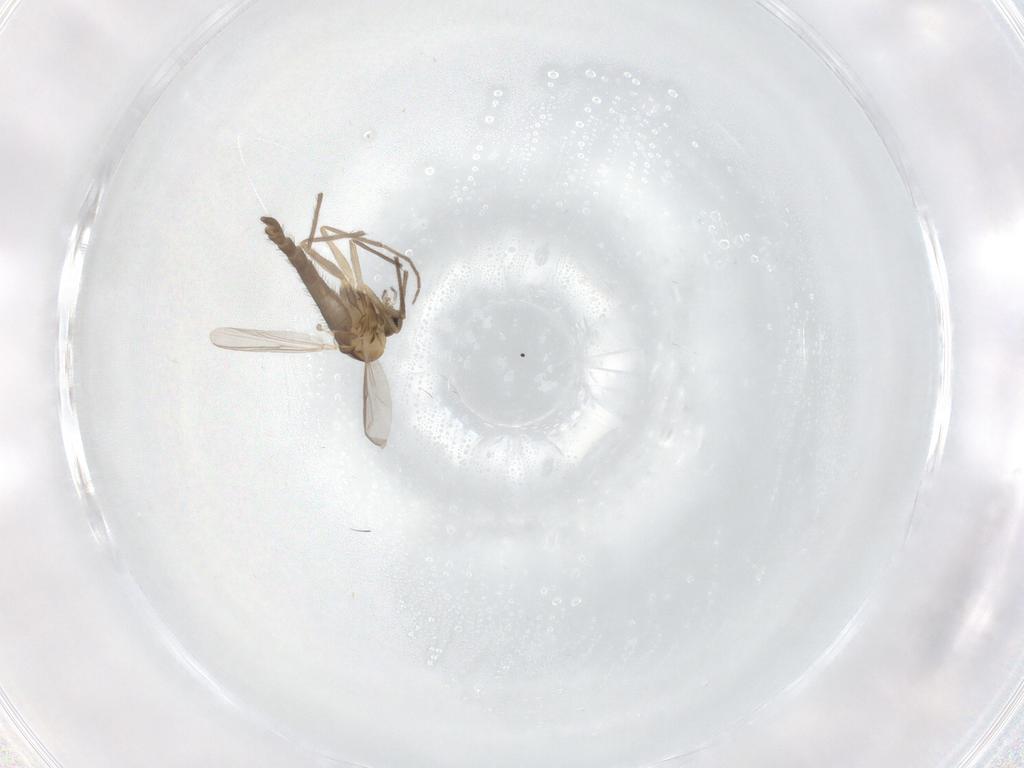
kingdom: Animalia
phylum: Arthropoda
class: Insecta
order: Diptera
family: Chironomidae
